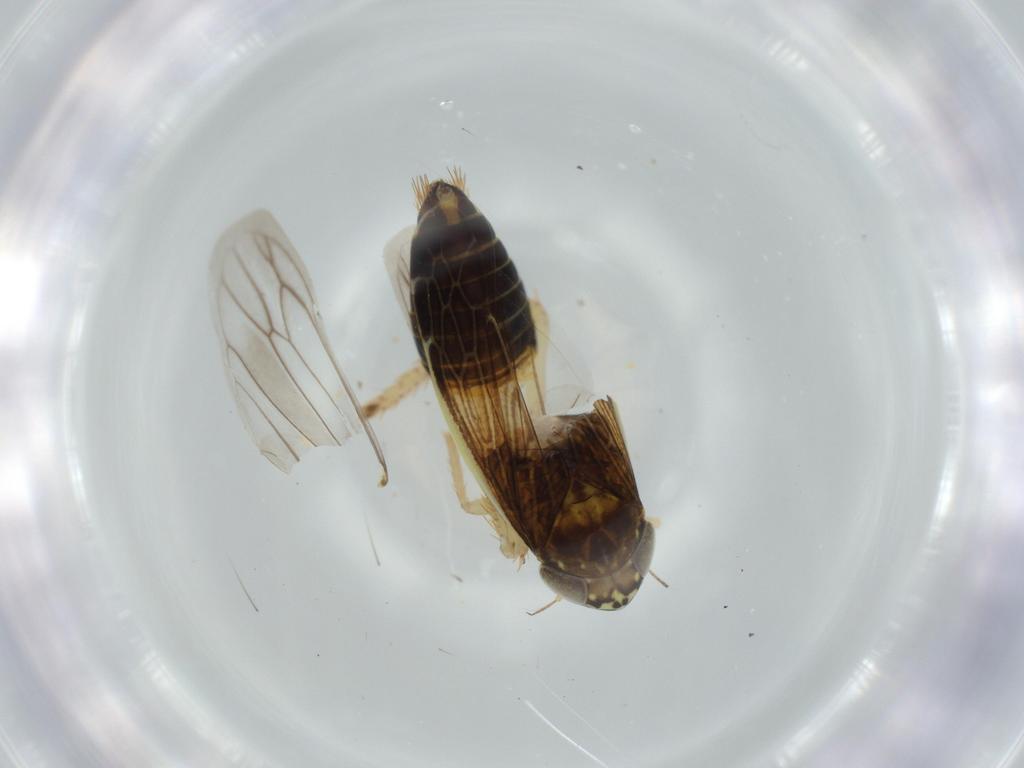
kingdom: Animalia
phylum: Arthropoda
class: Insecta
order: Hemiptera
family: Cicadellidae
